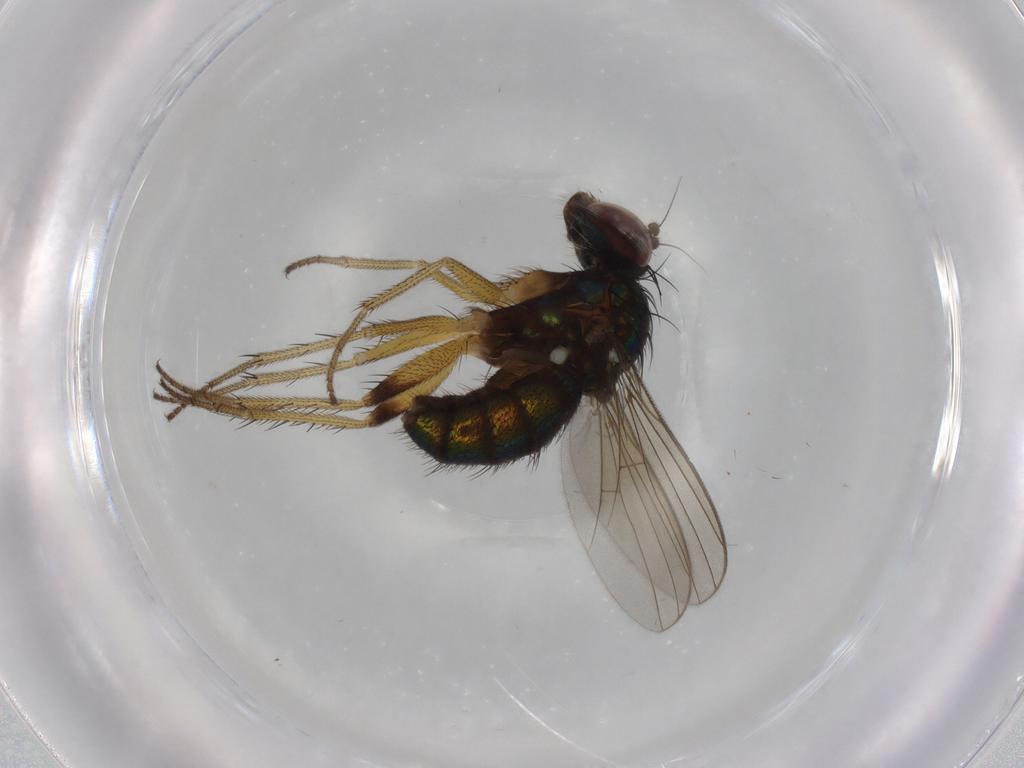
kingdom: Animalia
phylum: Arthropoda
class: Insecta
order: Diptera
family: Dolichopodidae
